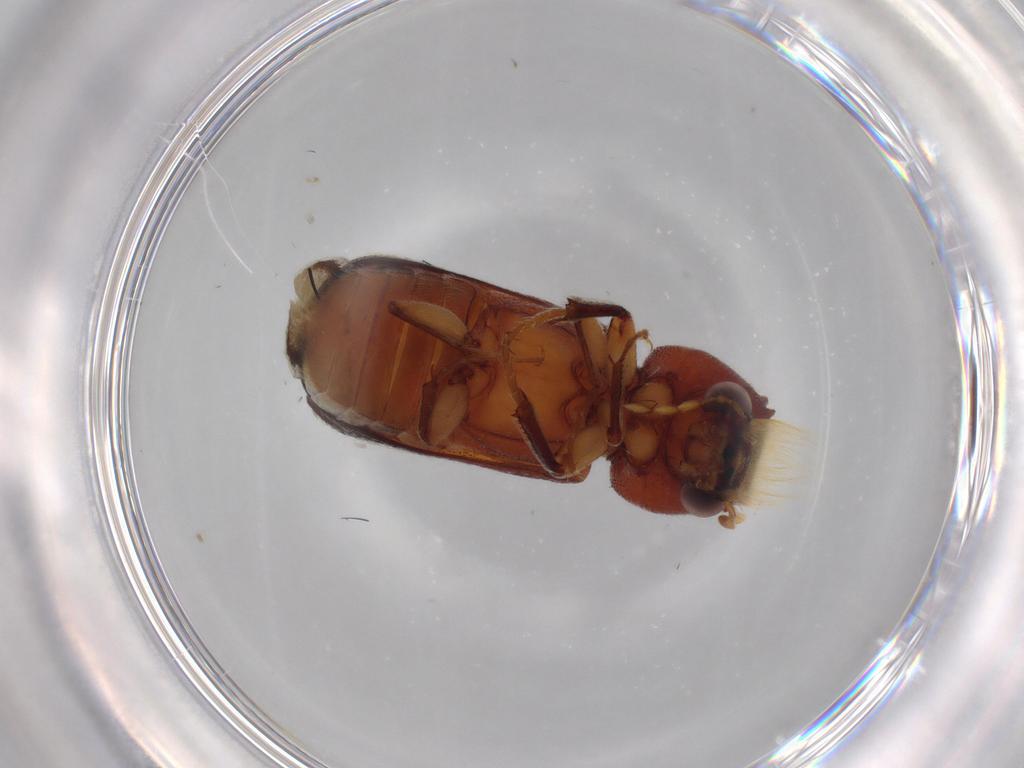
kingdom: Animalia
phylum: Arthropoda
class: Insecta
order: Coleoptera
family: Bostrichidae
